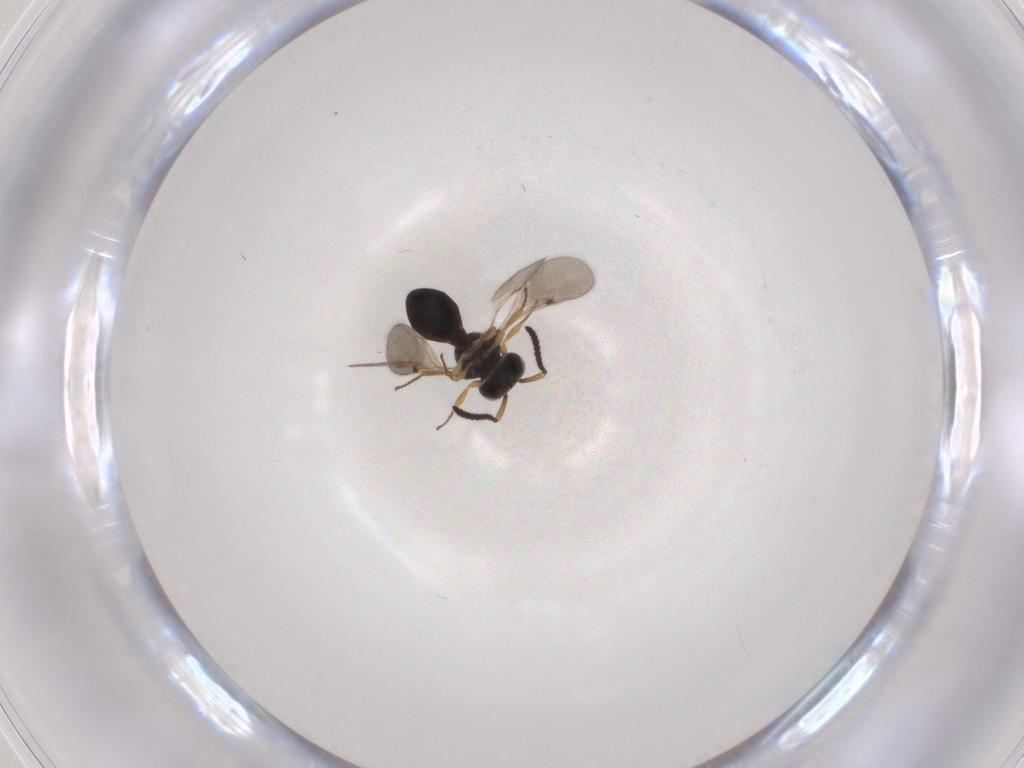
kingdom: Animalia
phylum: Arthropoda
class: Insecta
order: Hymenoptera
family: Scelionidae
